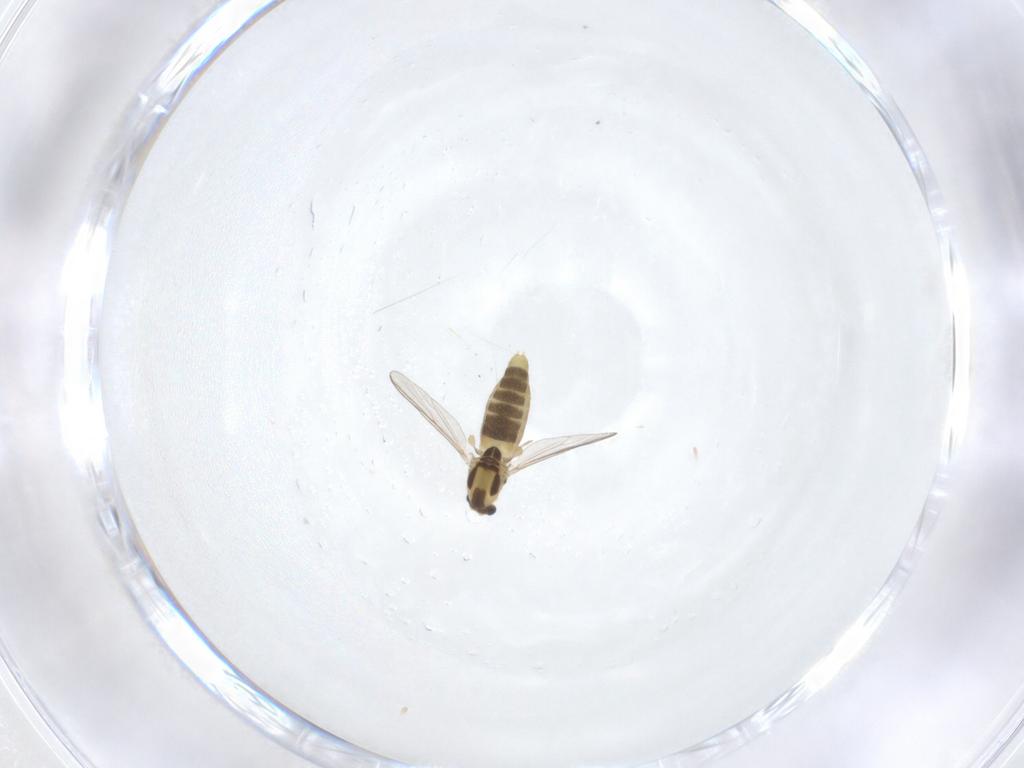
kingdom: Animalia
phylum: Arthropoda
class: Insecta
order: Diptera
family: Chironomidae
